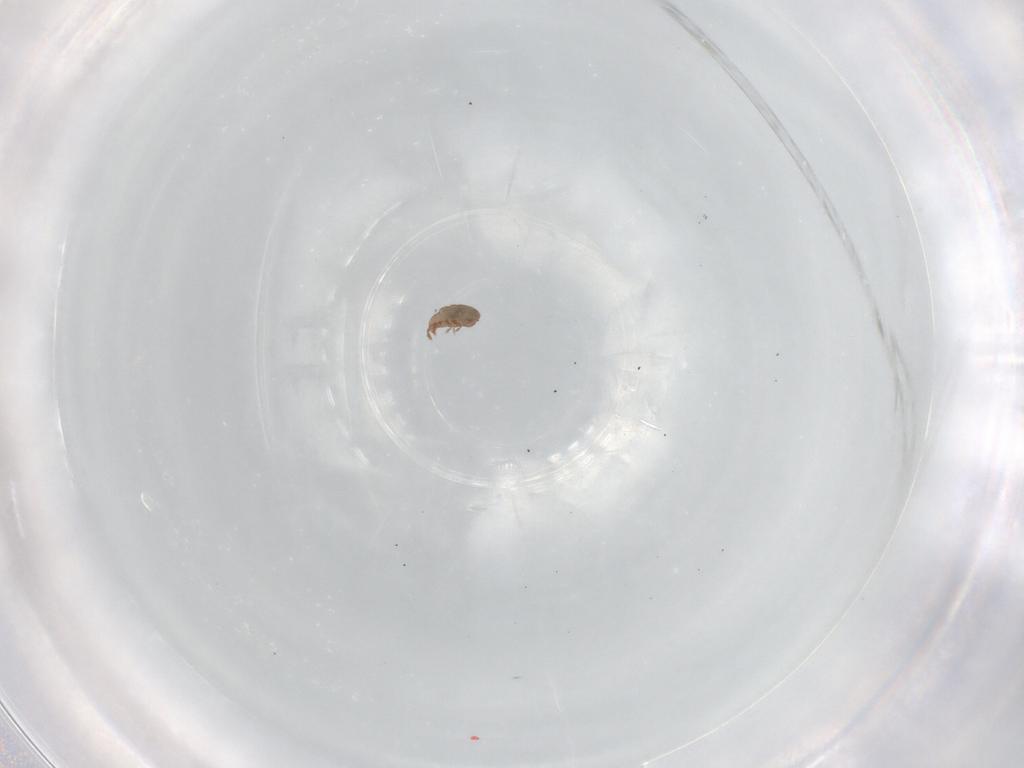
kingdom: Animalia
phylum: Arthropoda
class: Arachnida
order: Sarcoptiformes
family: Eremaeidae
